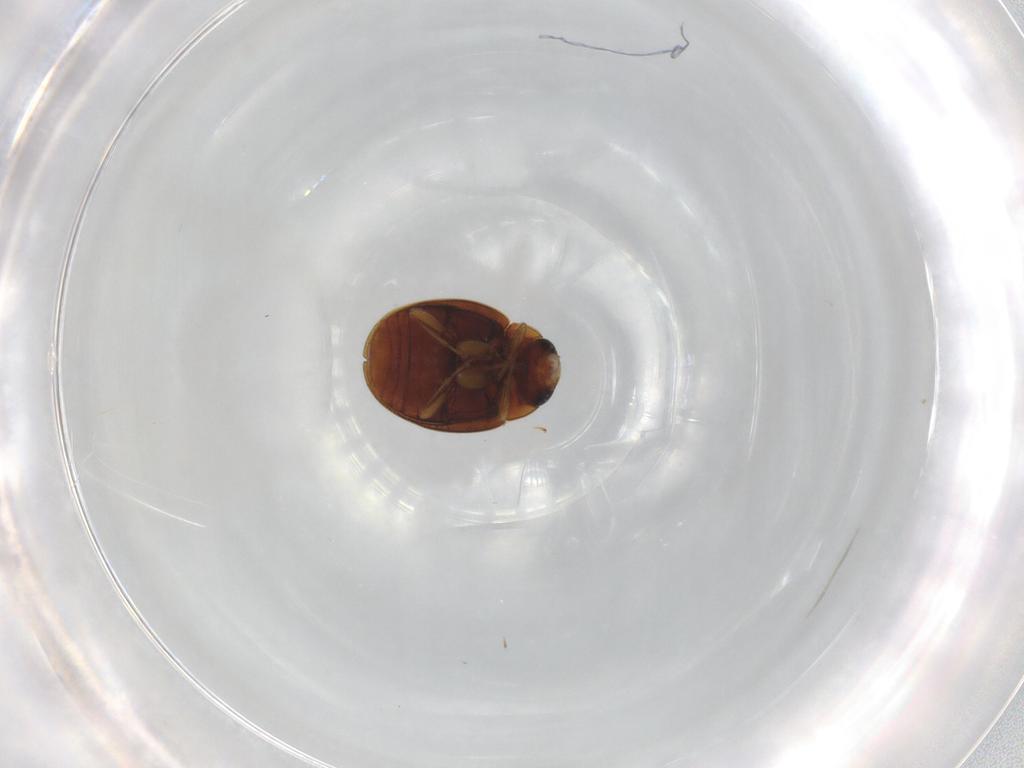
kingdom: Animalia
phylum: Arthropoda
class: Insecta
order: Coleoptera
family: Coccinellidae
